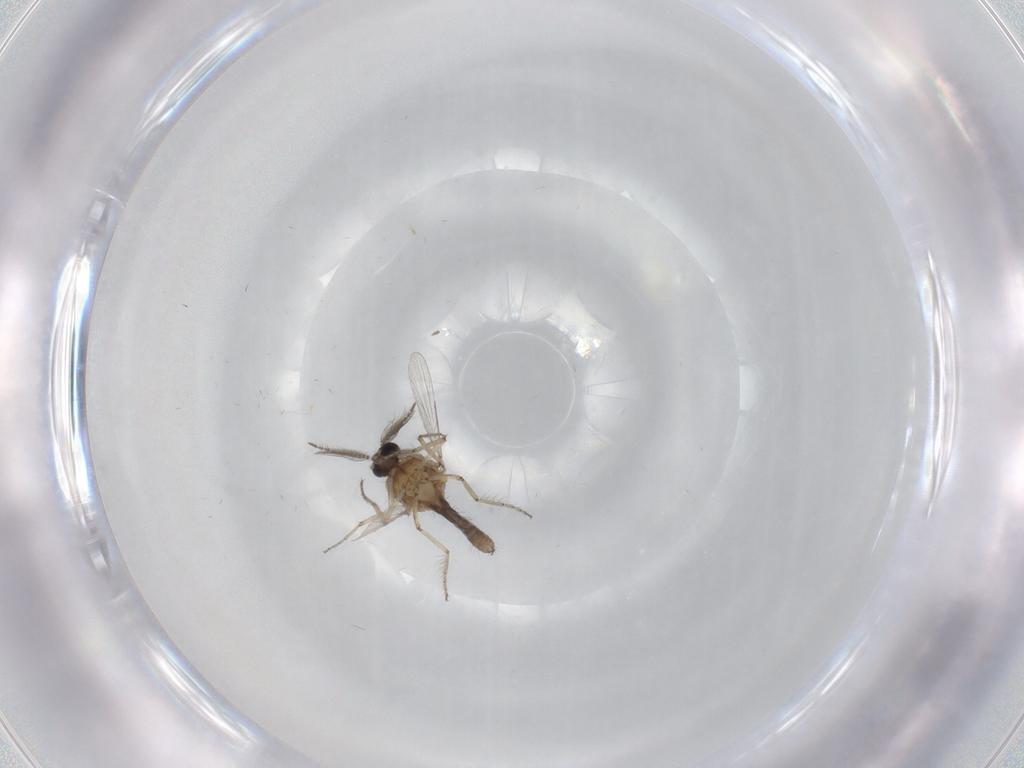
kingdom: Animalia
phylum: Arthropoda
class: Insecta
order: Diptera
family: Ceratopogonidae
